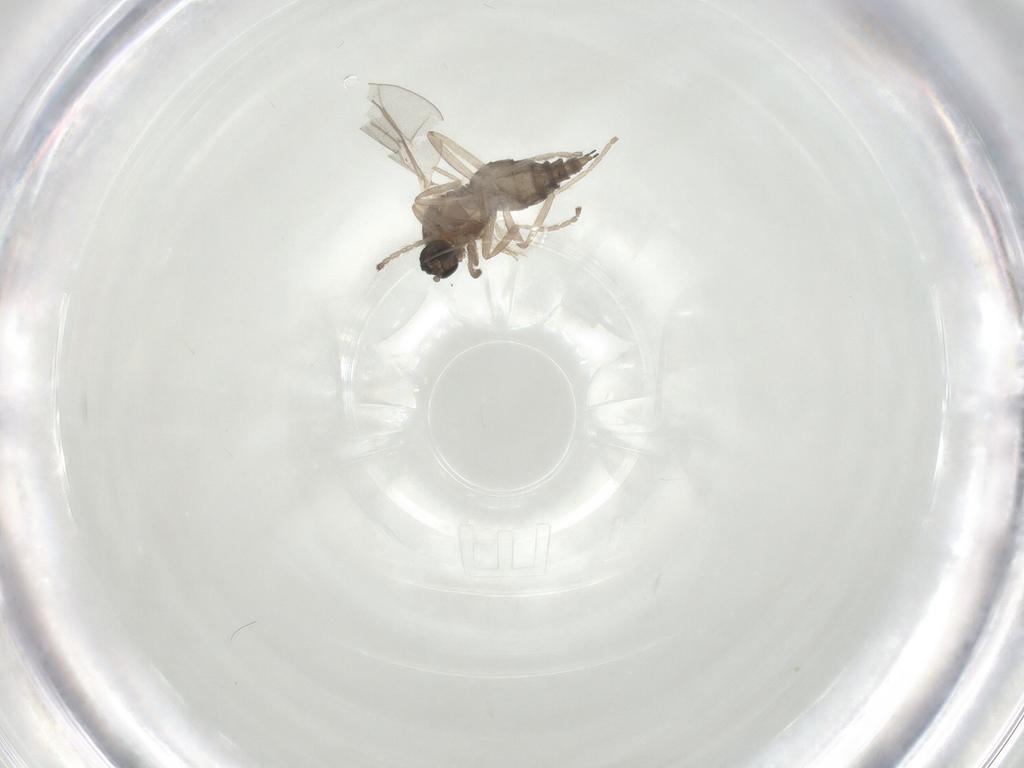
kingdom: Animalia
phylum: Arthropoda
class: Insecta
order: Diptera
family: Cecidomyiidae
